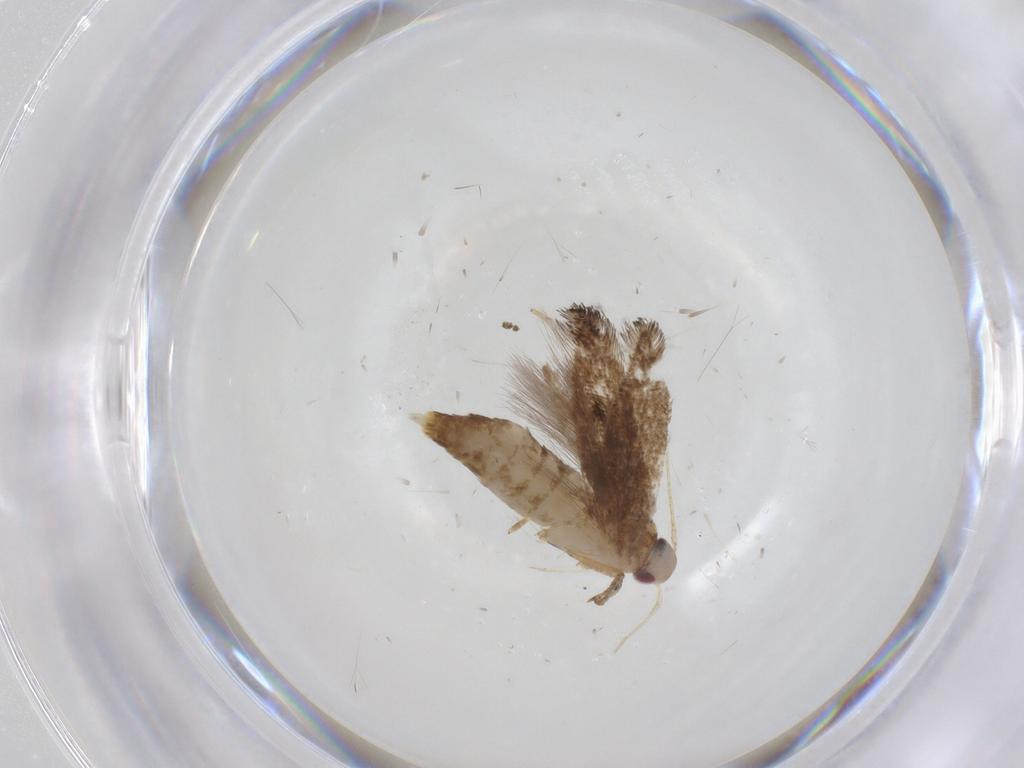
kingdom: Animalia
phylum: Arthropoda
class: Insecta
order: Lepidoptera
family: Cosmopterigidae
